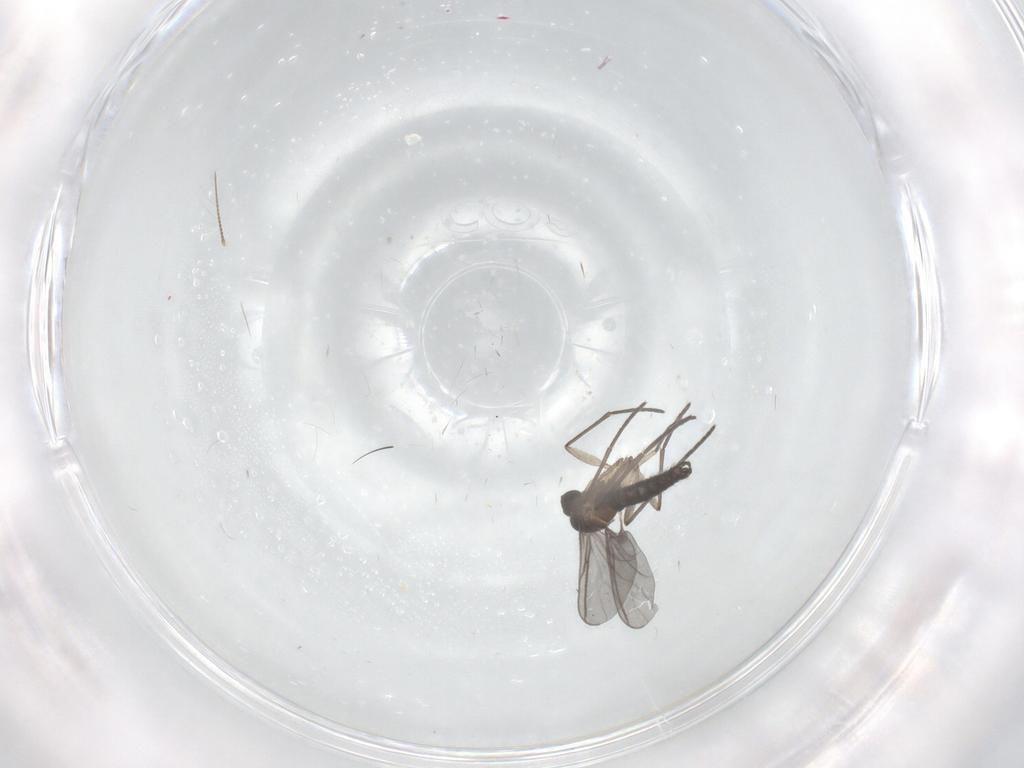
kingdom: Animalia
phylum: Arthropoda
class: Insecta
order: Diptera
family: Chironomidae
